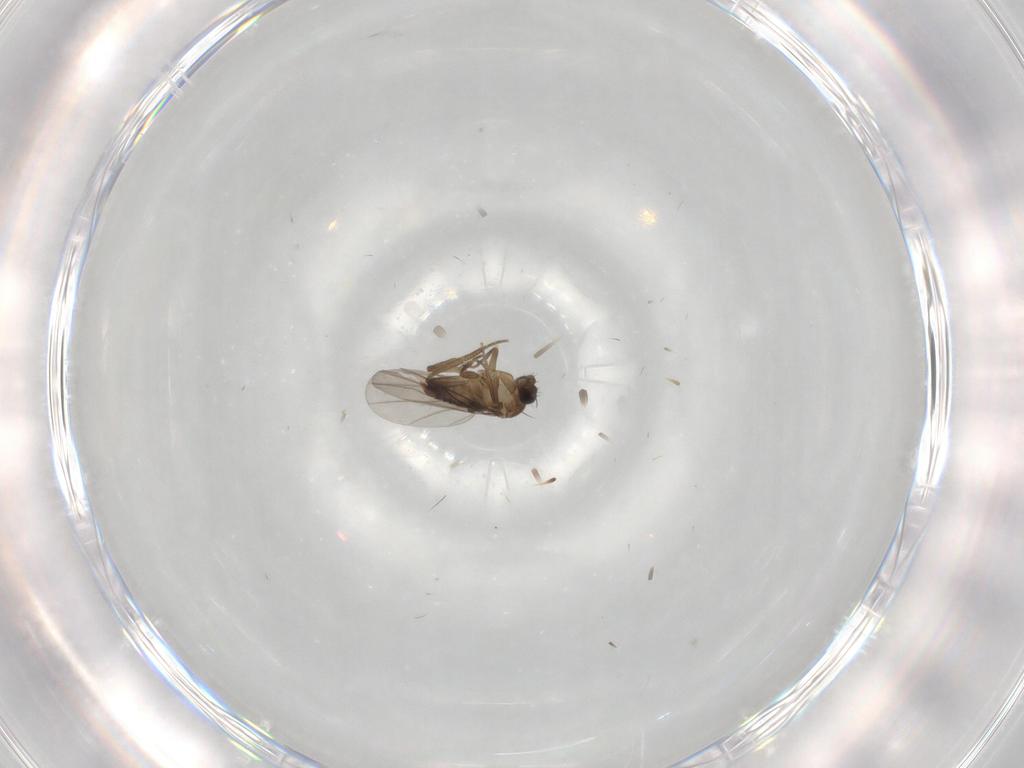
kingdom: Animalia
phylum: Arthropoda
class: Insecta
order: Diptera
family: Phoridae
